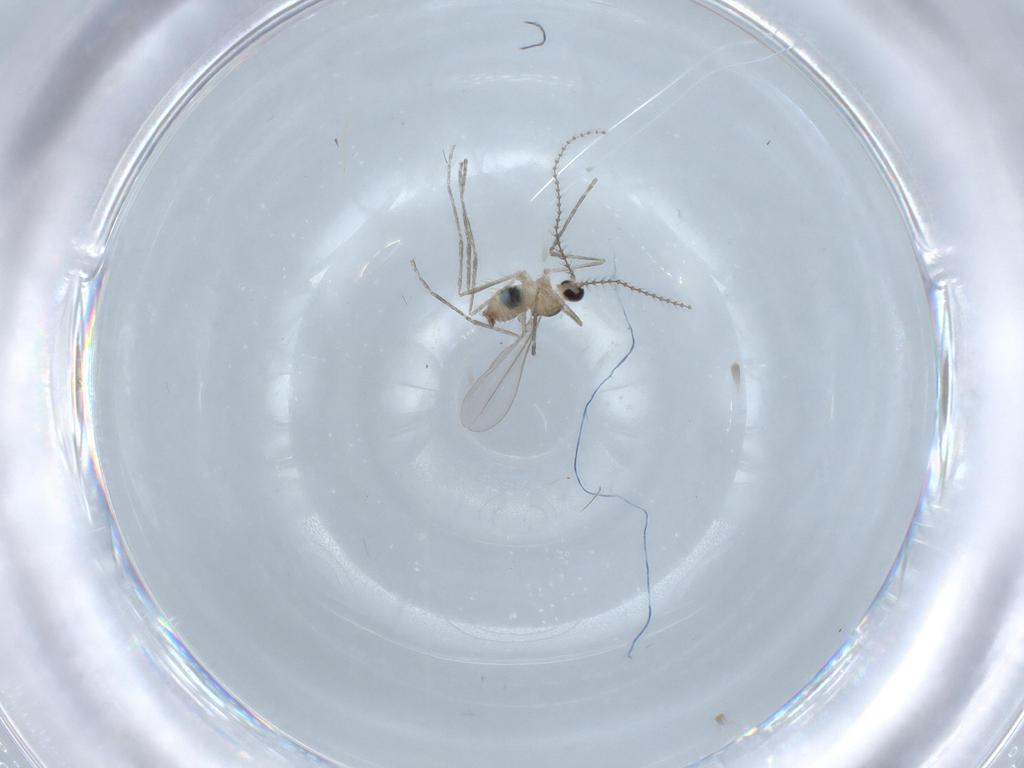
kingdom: Animalia
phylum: Arthropoda
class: Insecta
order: Diptera
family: Cecidomyiidae
